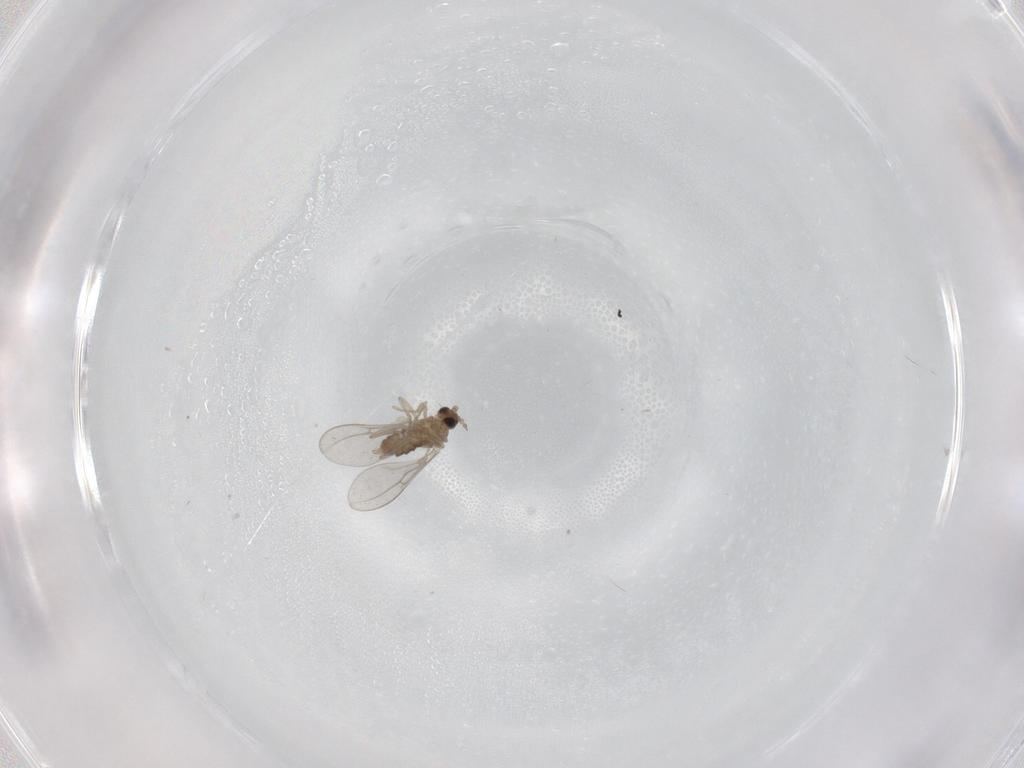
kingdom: Animalia
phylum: Arthropoda
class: Insecta
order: Diptera
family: Cecidomyiidae
